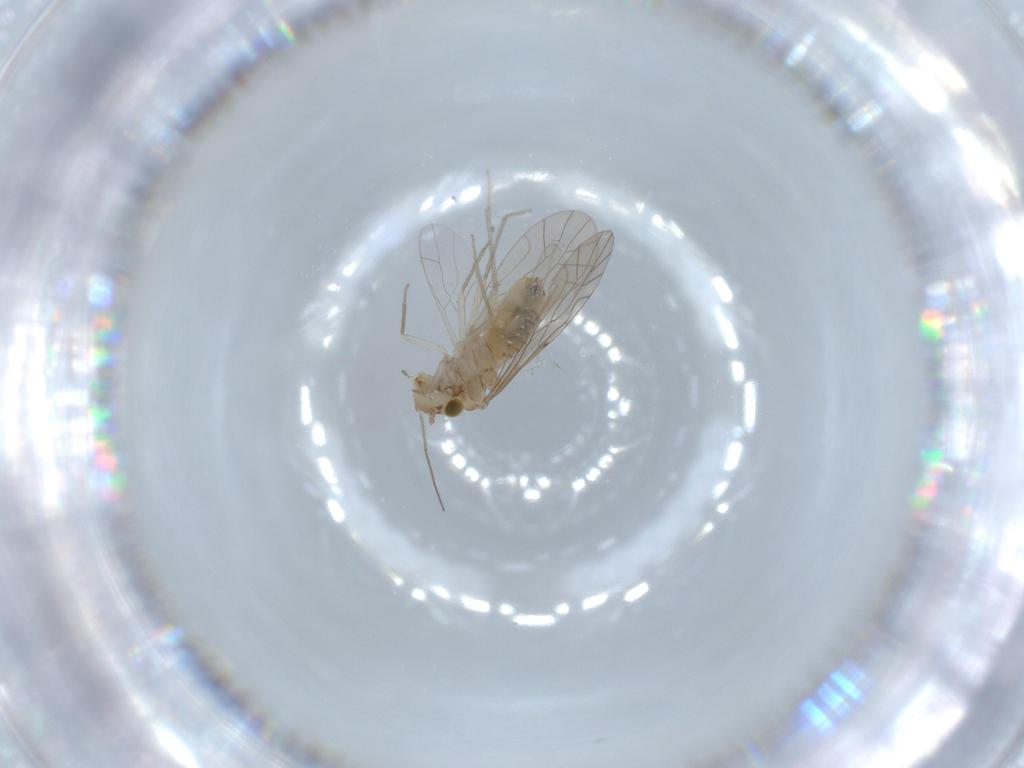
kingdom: Animalia
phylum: Arthropoda
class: Insecta
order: Psocodea
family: Lachesillidae
